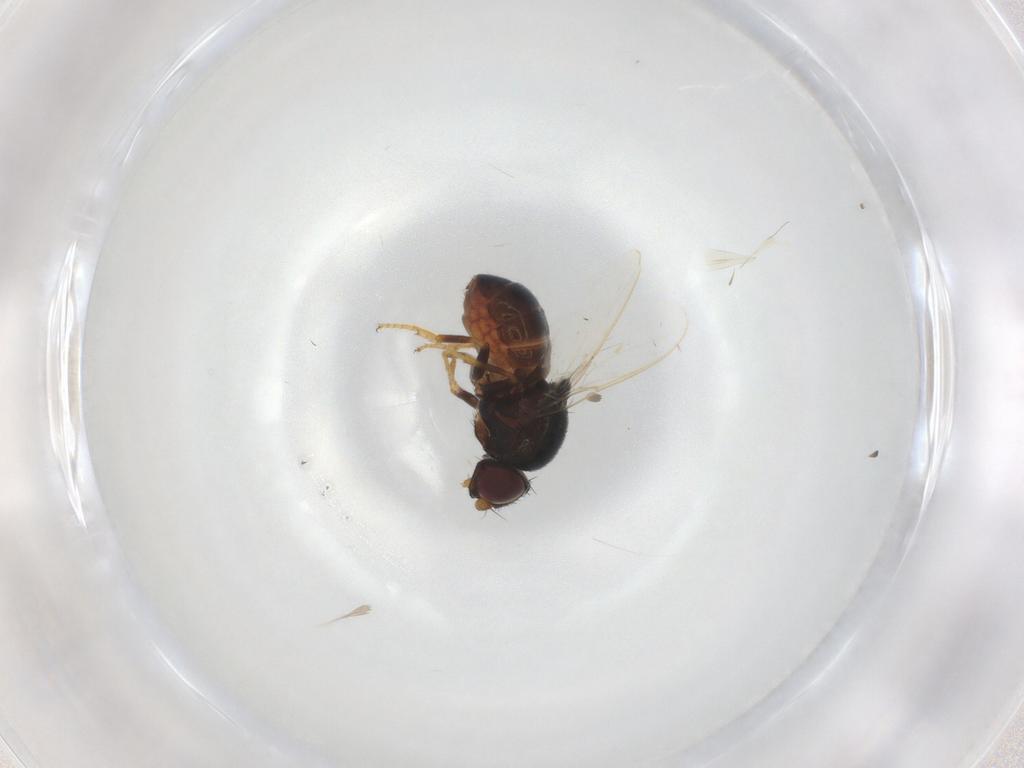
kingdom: Animalia
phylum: Arthropoda
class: Insecta
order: Diptera
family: Chloropidae
